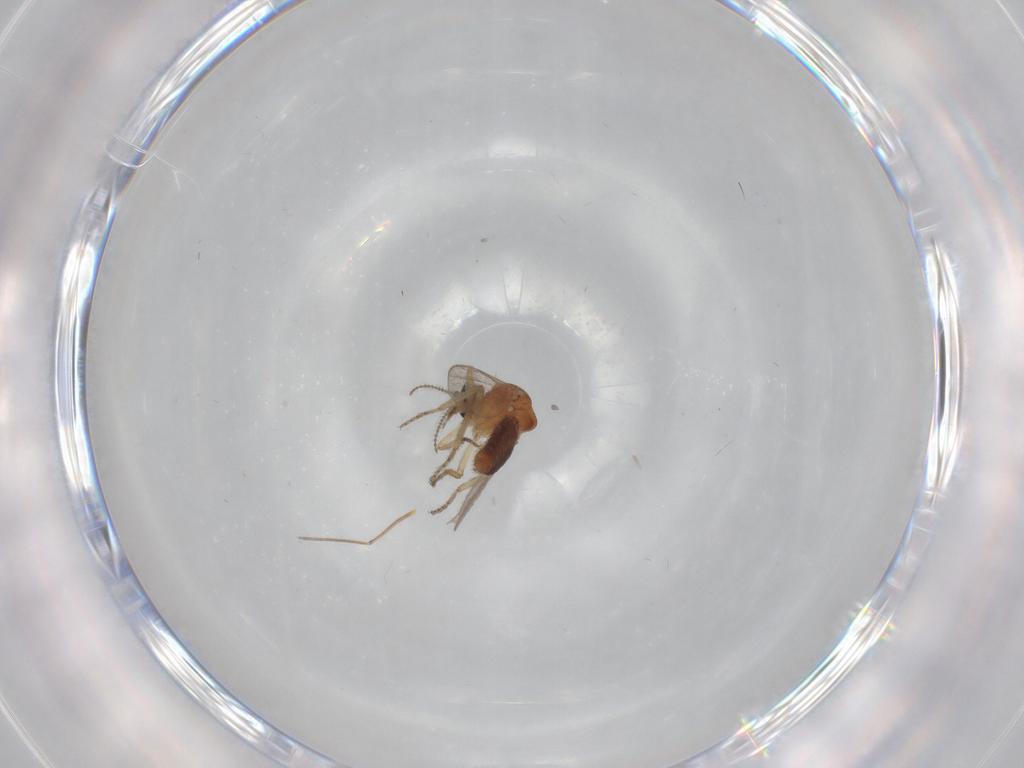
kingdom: Animalia
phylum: Arthropoda
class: Insecta
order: Diptera
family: Ceratopogonidae
